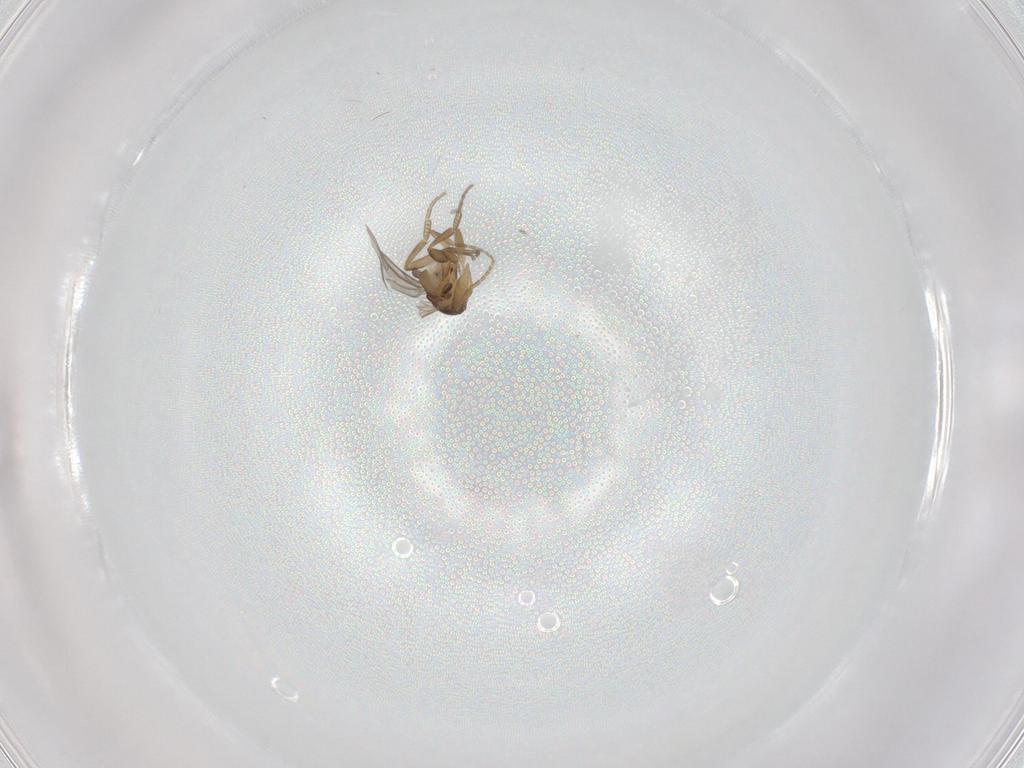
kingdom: Animalia
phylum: Arthropoda
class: Insecta
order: Diptera
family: Phoridae
